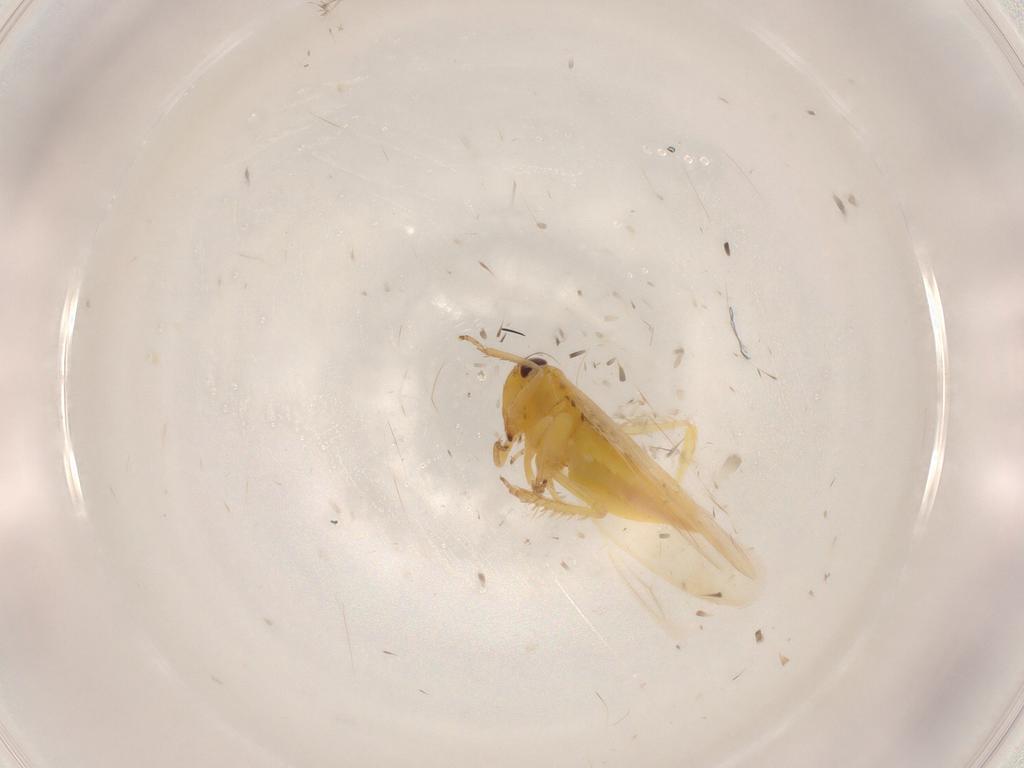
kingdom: Animalia
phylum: Arthropoda
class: Insecta
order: Hemiptera
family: Cicadellidae
